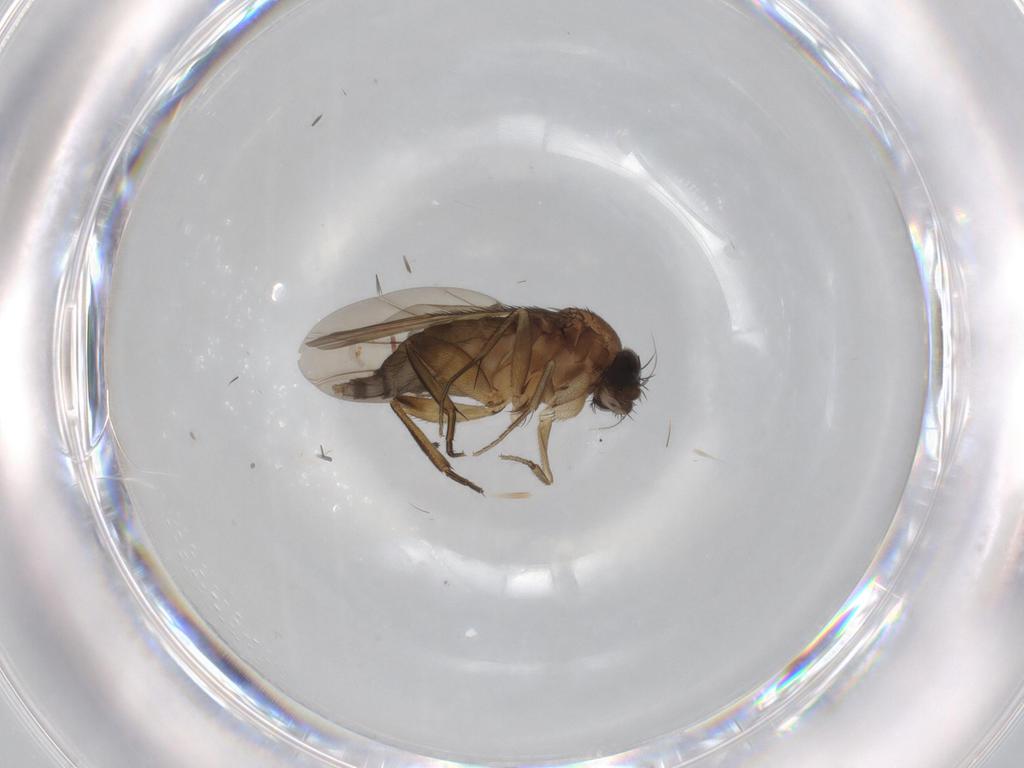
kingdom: Animalia
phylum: Arthropoda
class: Insecta
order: Diptera
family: Phoridae
